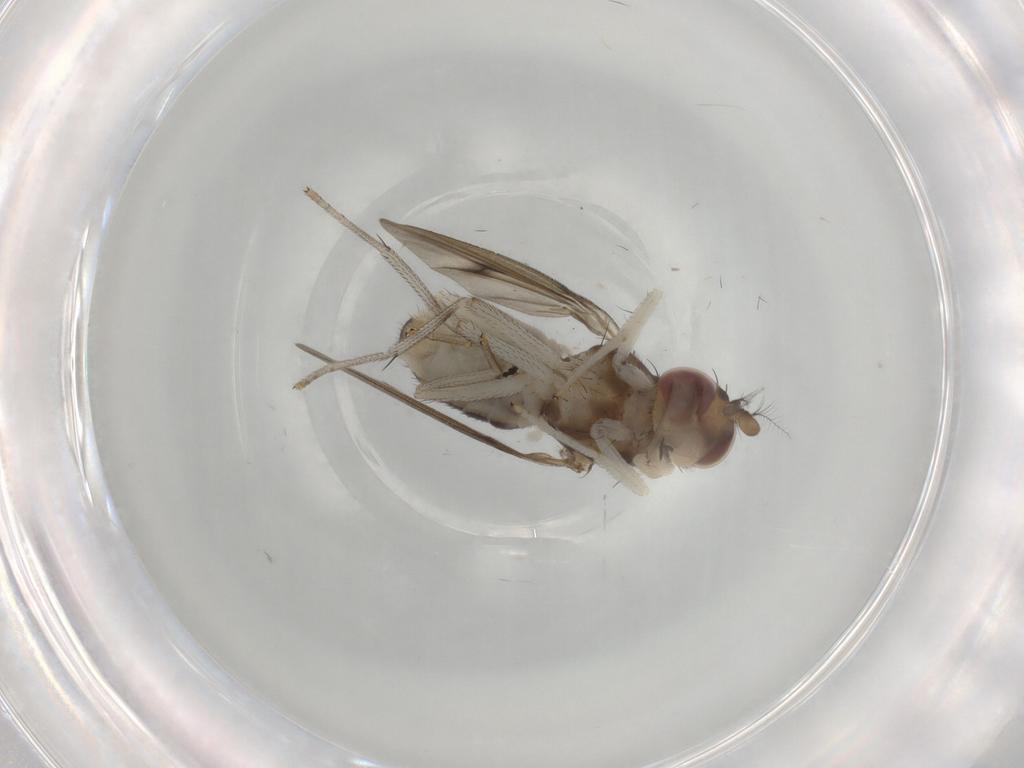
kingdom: Animalia
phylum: Arthropoda
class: Insecta
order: Diptera
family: Lauxaniidae
